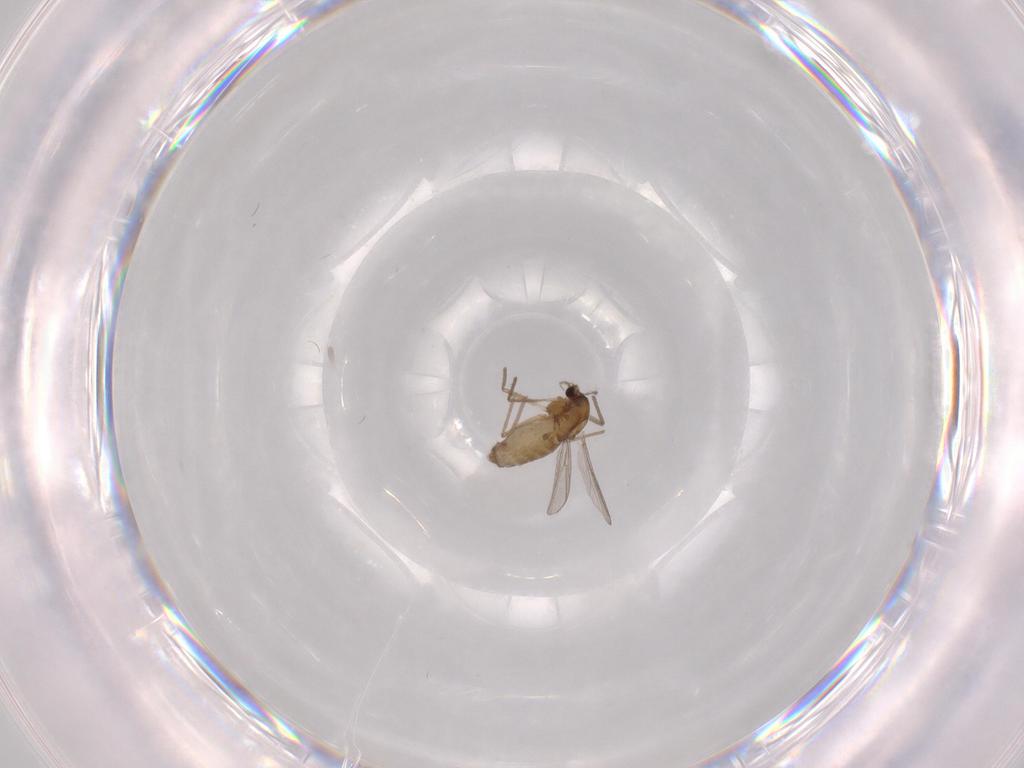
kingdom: Animalia
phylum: Arthropoda
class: Insecta
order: Diptera
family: Chironomidae
